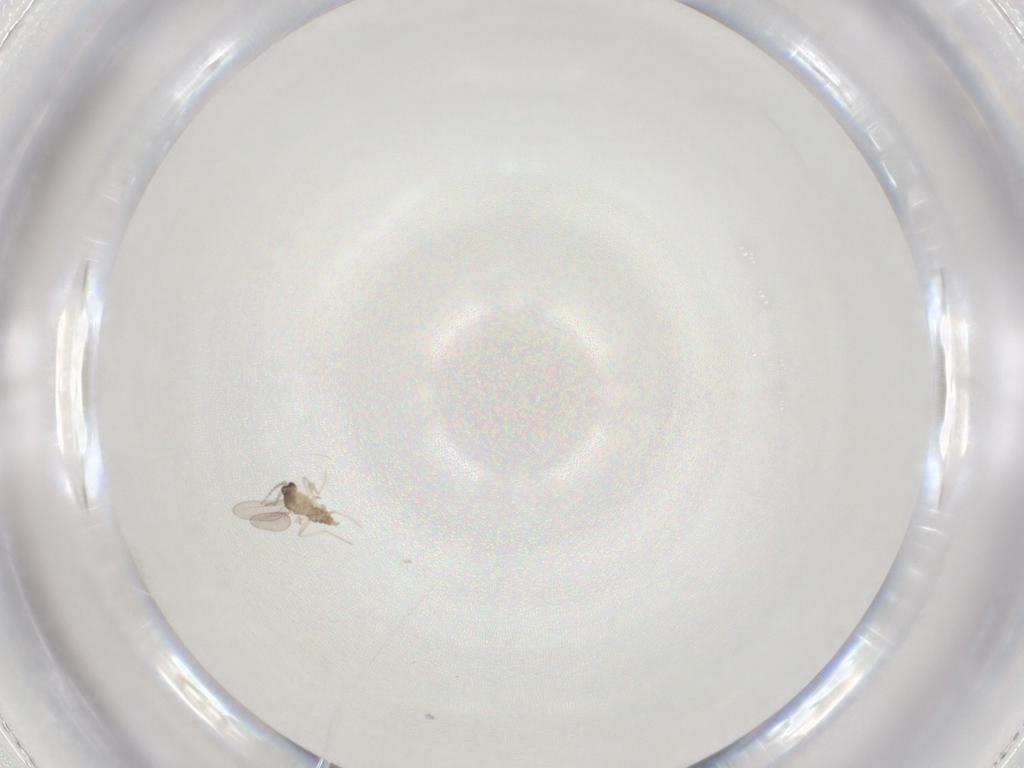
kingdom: Animalia
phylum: Arthropoda
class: Insecta
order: Diptera
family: Cecidomyiidae
